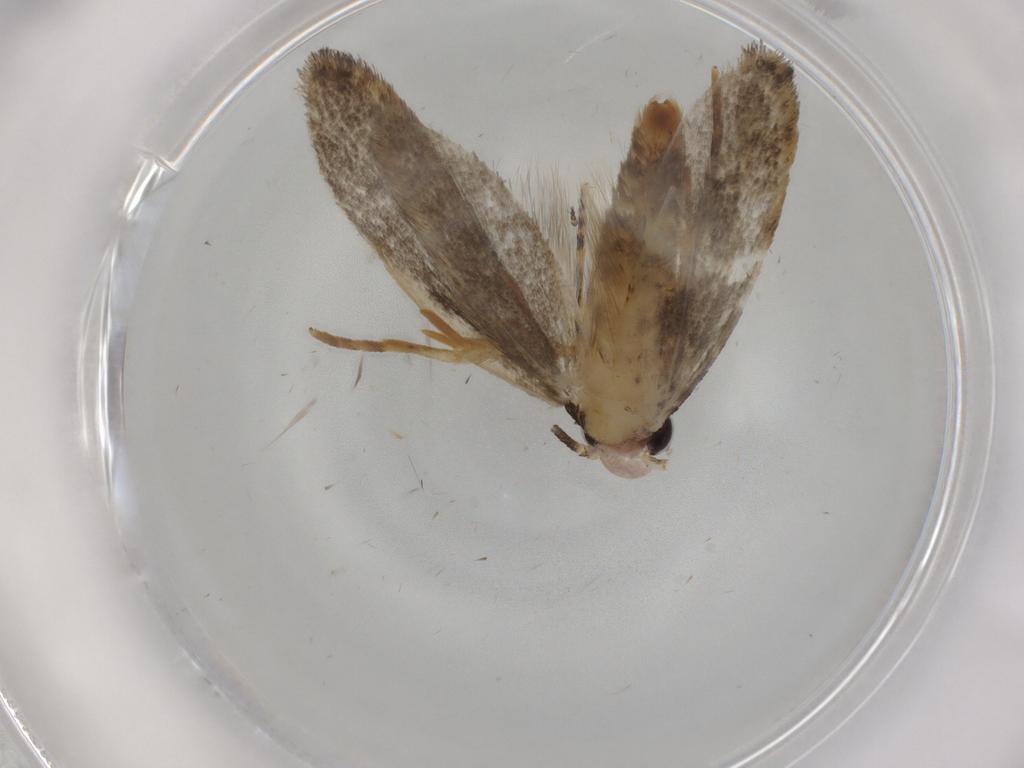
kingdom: Animalia
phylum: Arthropoda
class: Insecta
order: Lepidoptera
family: Tineidae
